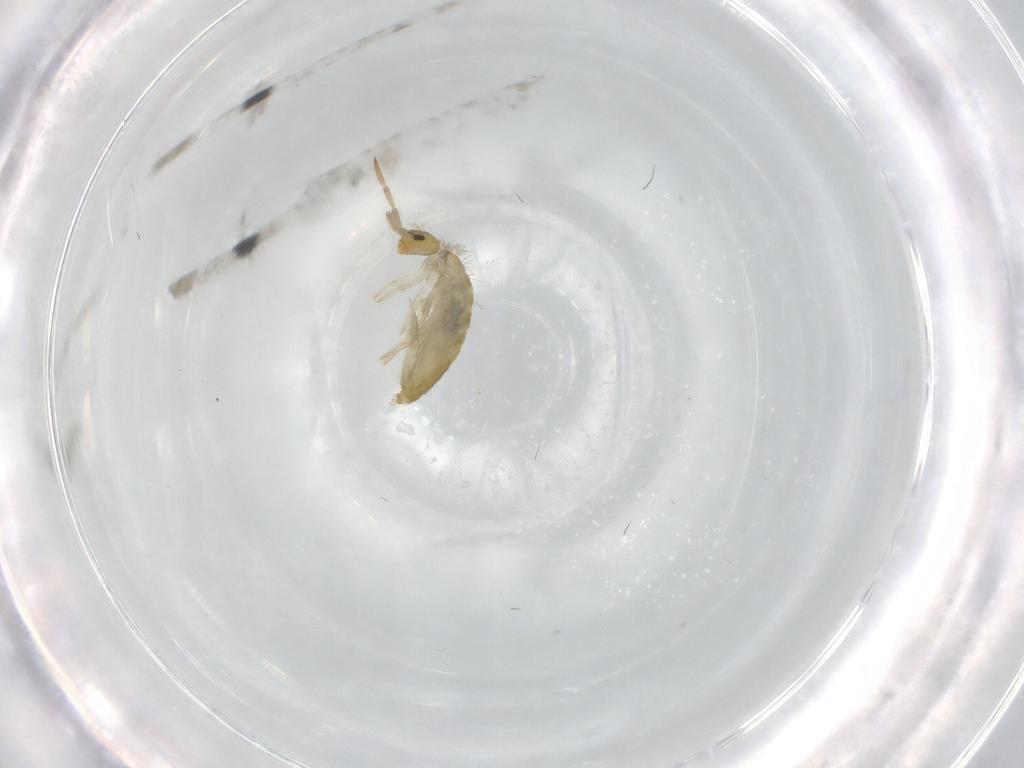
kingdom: Animalia
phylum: Arthropoda
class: Collembola
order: Entomobryomorpha
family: Entomobryidae
